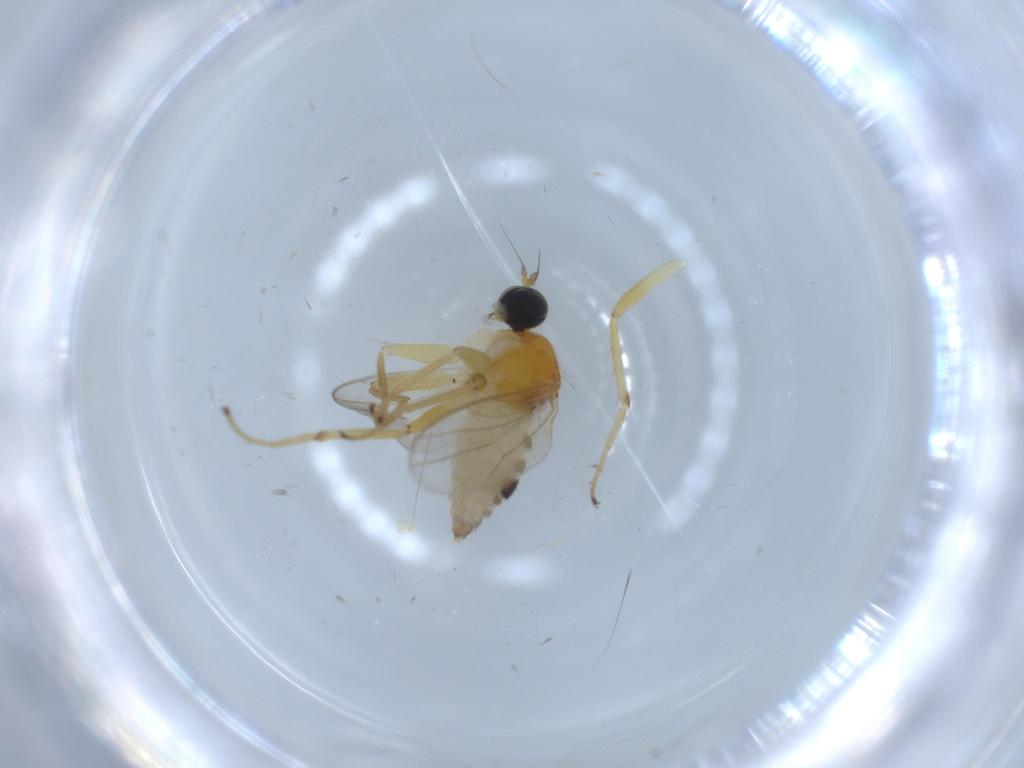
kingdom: Animalia
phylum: Arthropoda
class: Insecta
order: Diptera
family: Hybotidae
